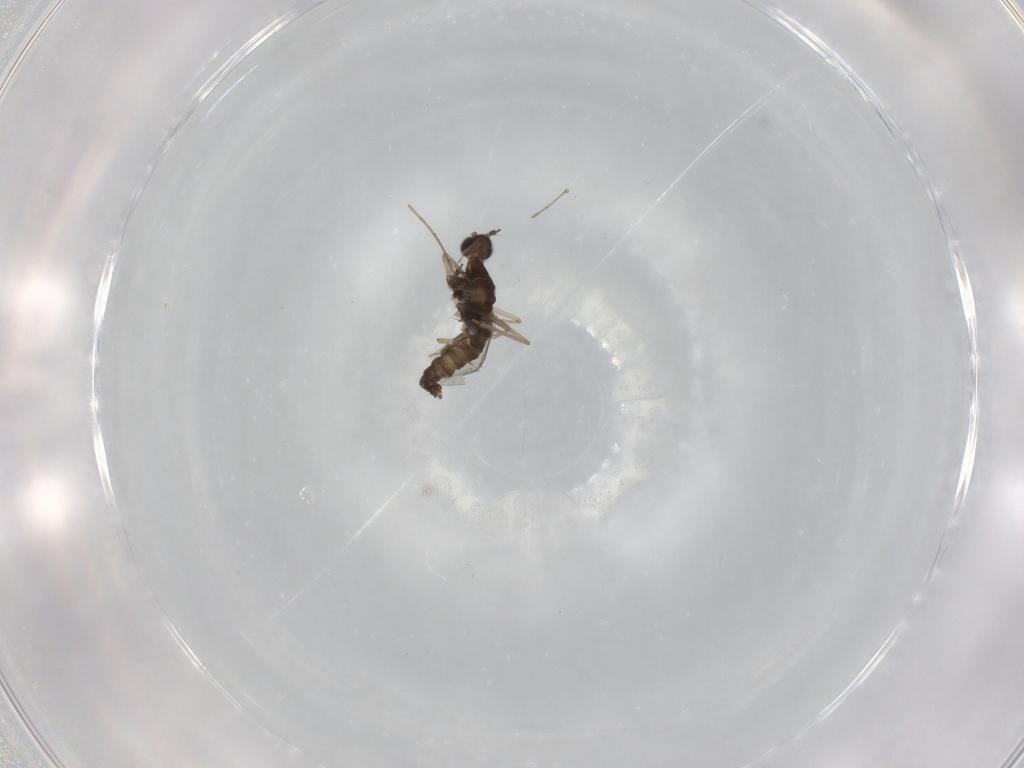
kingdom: Animalia
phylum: Arthropoda
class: Insecta
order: Diptera
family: Cecidomyiidae
